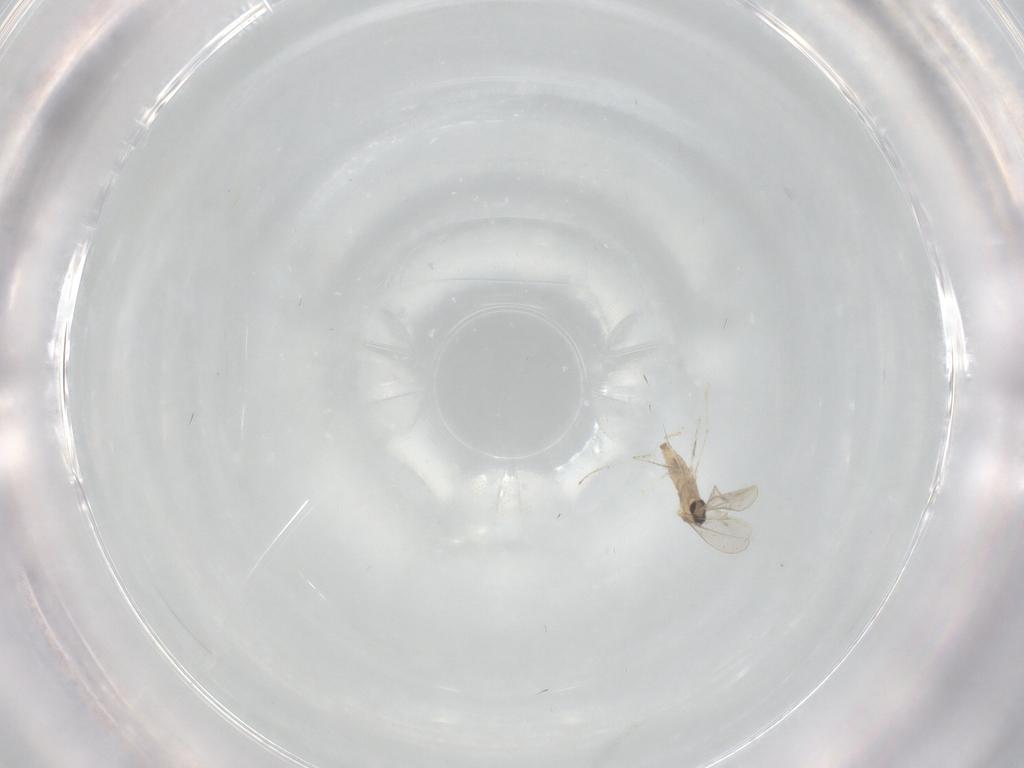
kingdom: Animalia
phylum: Arthropoda
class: Insecta
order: Diptera
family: Cecidomyiidae
